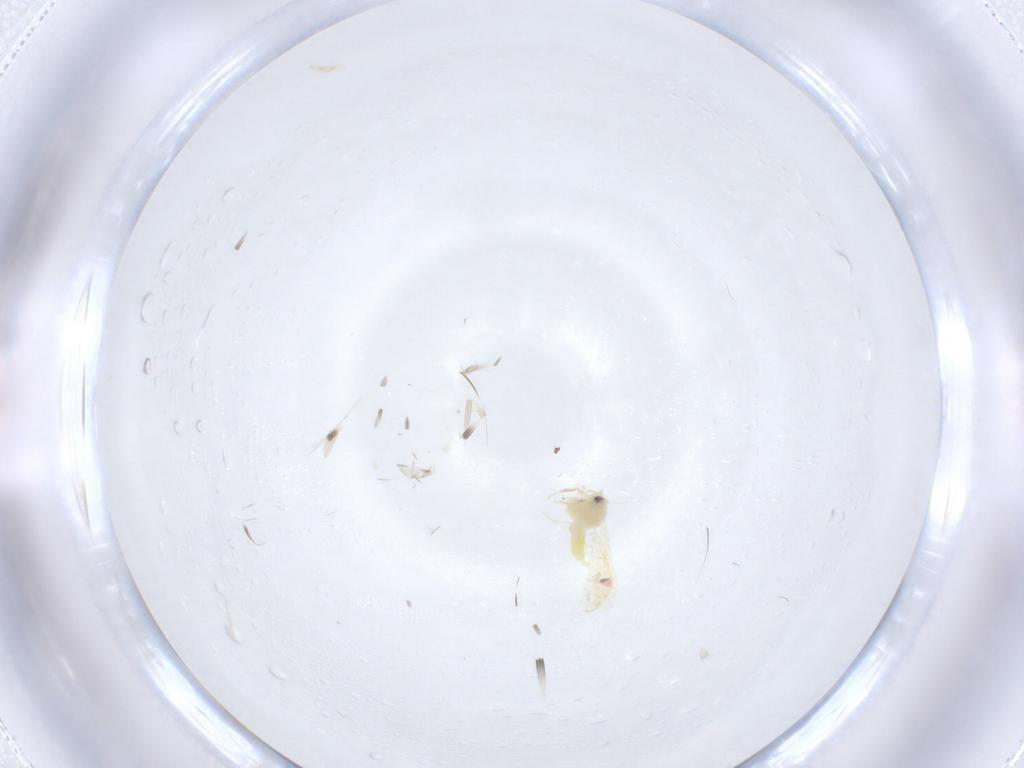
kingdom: Animalia
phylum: Arthropoda
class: Insecta
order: Hemiptera
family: Aleyrodidae
